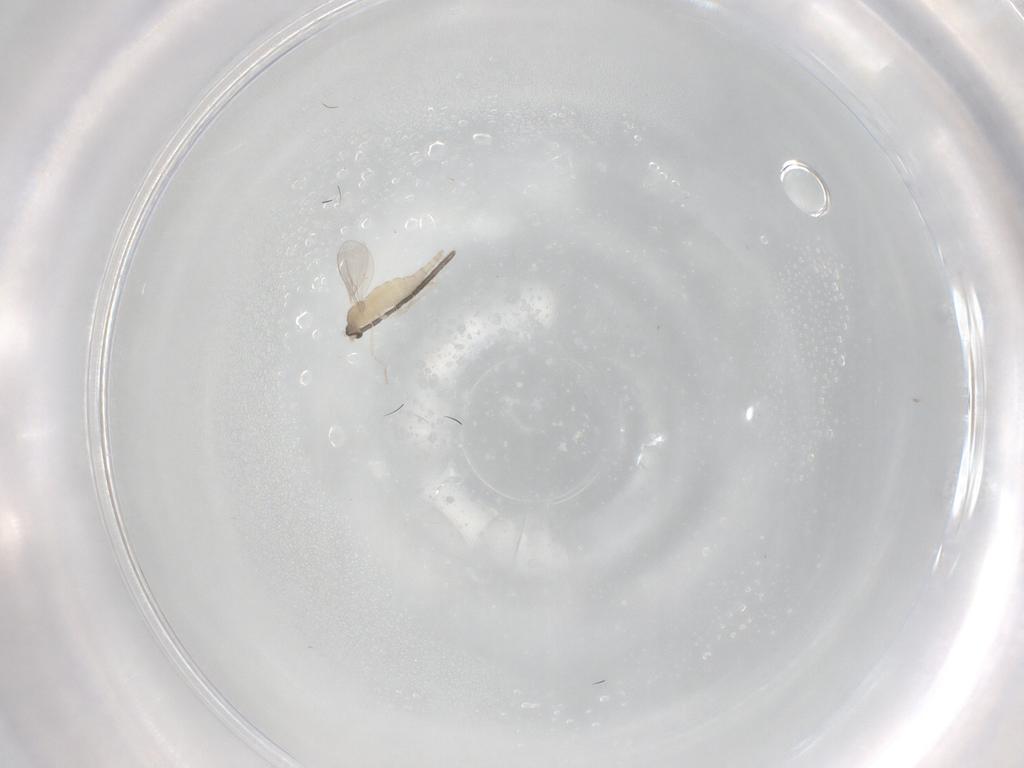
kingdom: Animalia
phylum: Arthropoda
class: Insecta
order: Diptera
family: Cecidomyiidae
